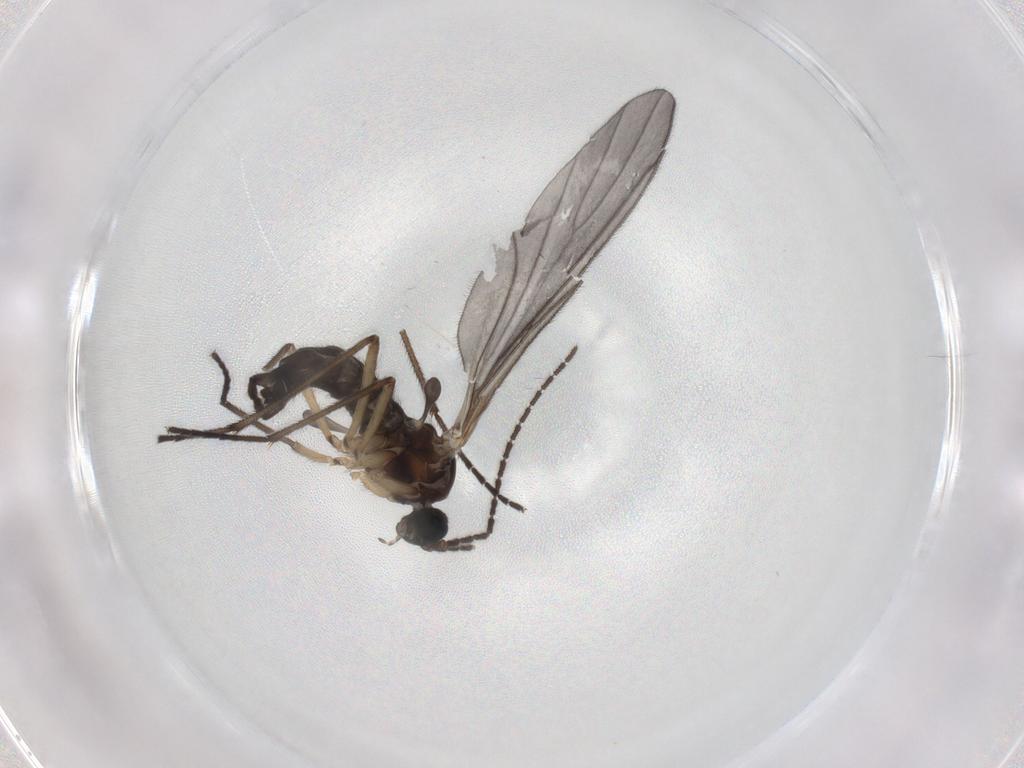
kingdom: Animalia
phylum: Arthropoda
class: Insecta
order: Diptera
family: Sciaridae
